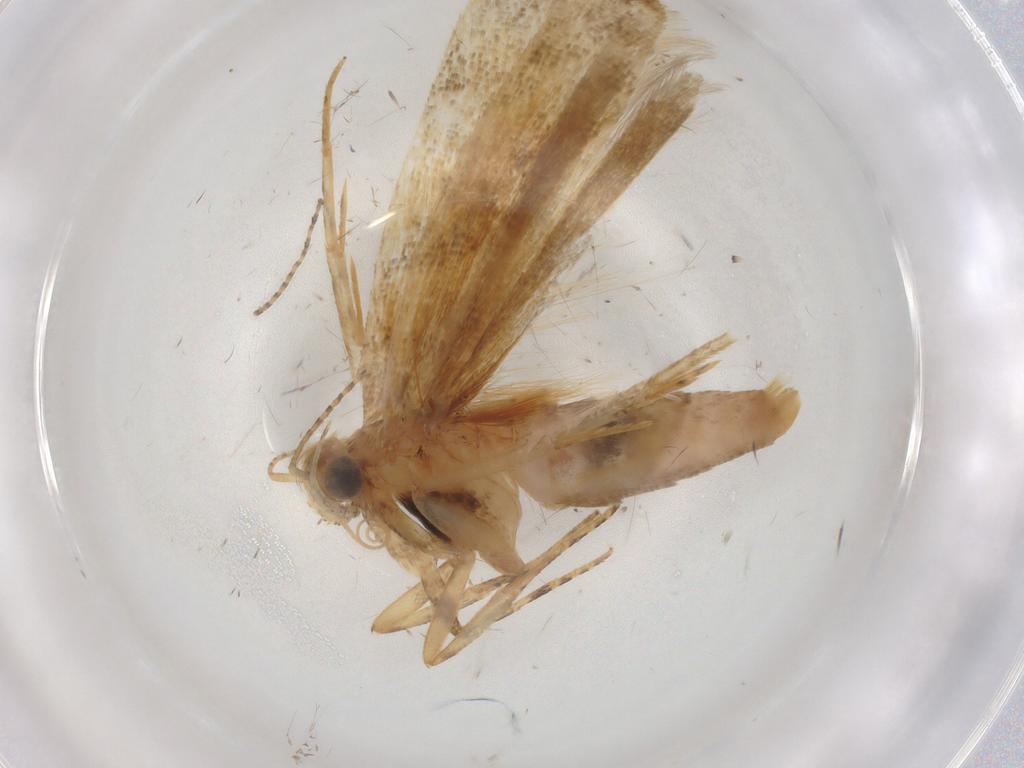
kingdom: Animalia
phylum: Arthropoda
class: Insecta
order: Lepidoptera
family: Gelechiidae
